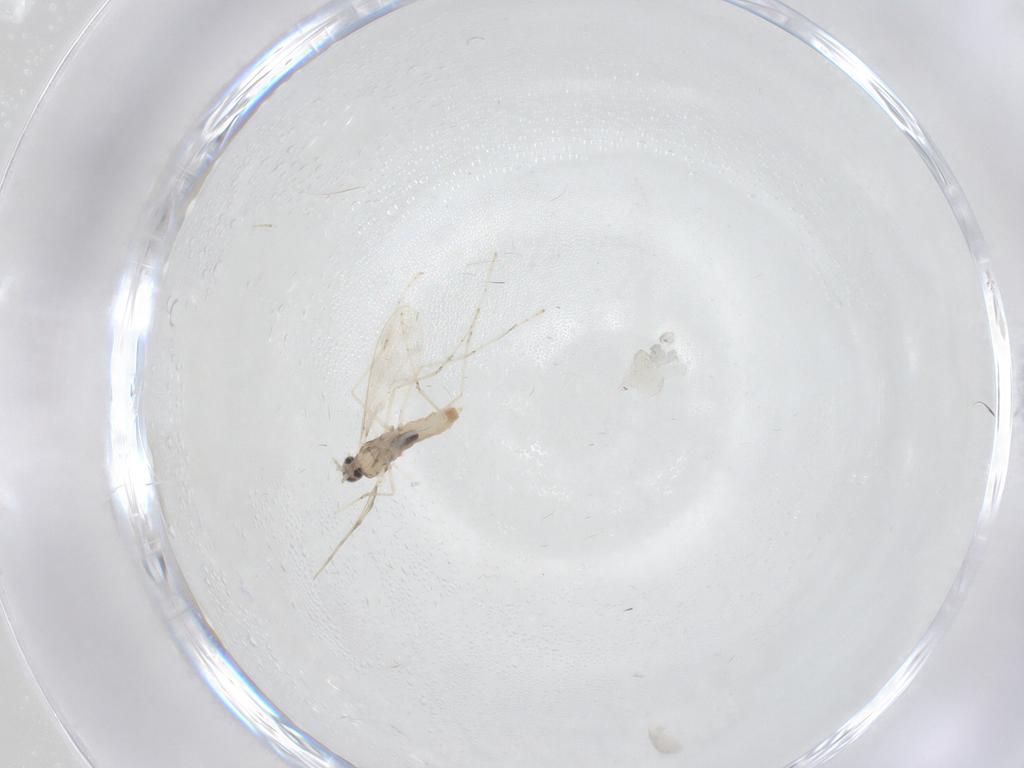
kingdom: Animalia
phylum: Arthropoda
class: Insecta
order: Diptera
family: Cecidomyiidae
